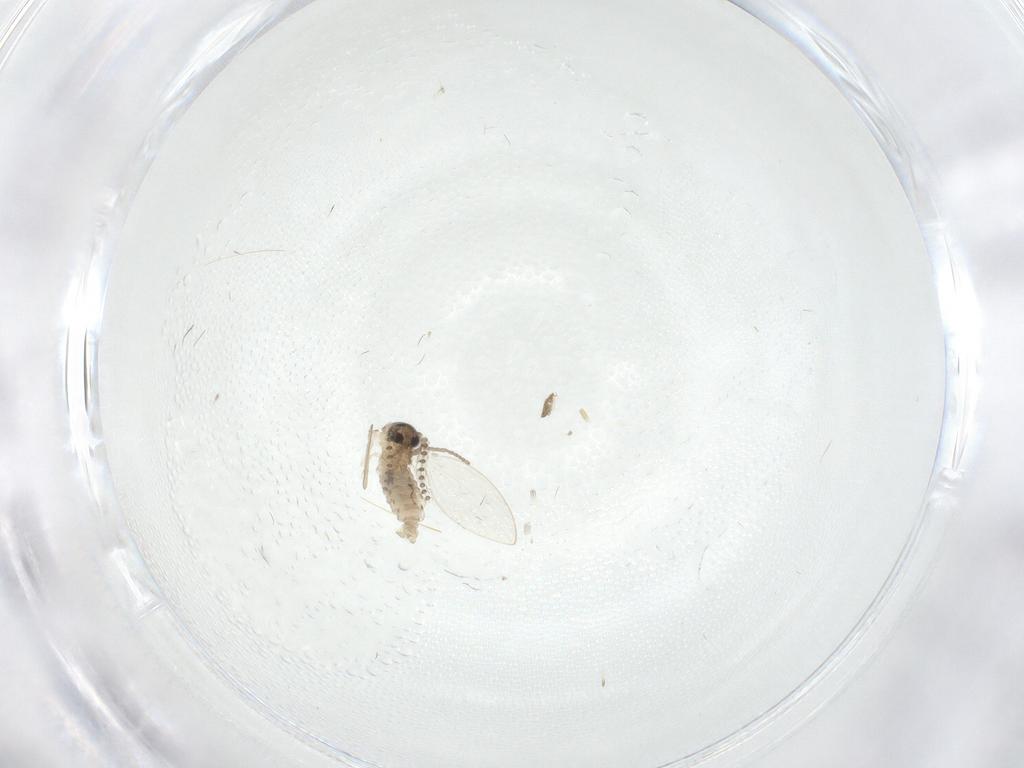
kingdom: Animalia
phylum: Arthropoda
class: Insecta
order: Diptera
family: Psychodidae
